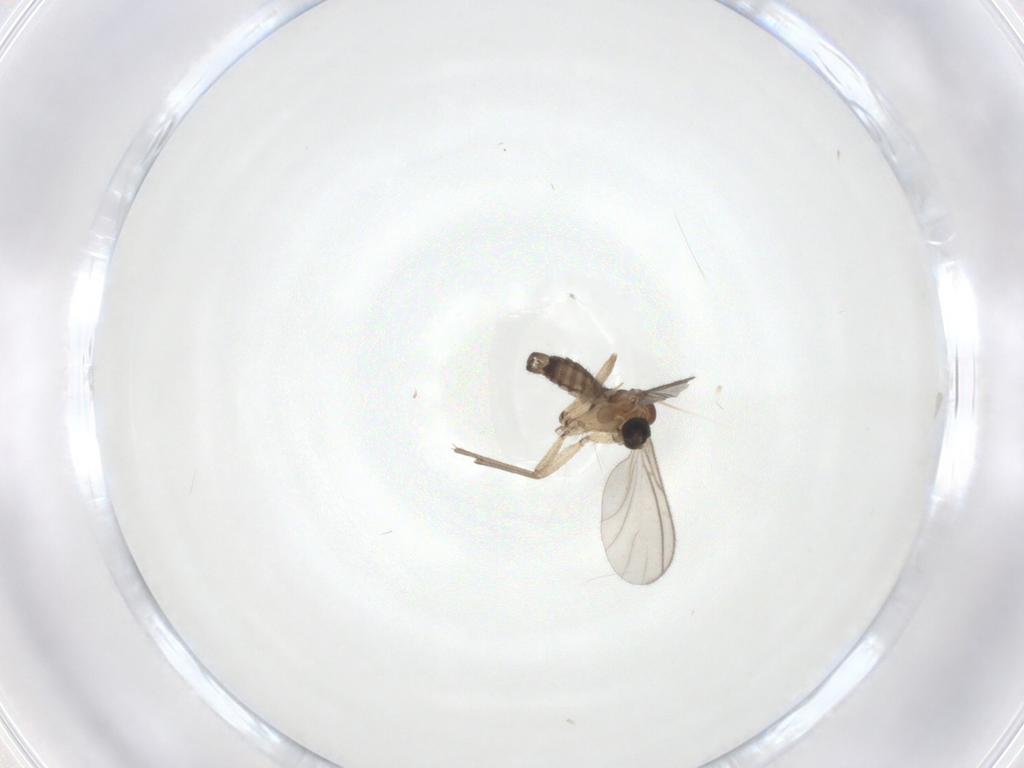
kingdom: Animalia
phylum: Arthropoda
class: Insecta
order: Diptera
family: Sciaridae
